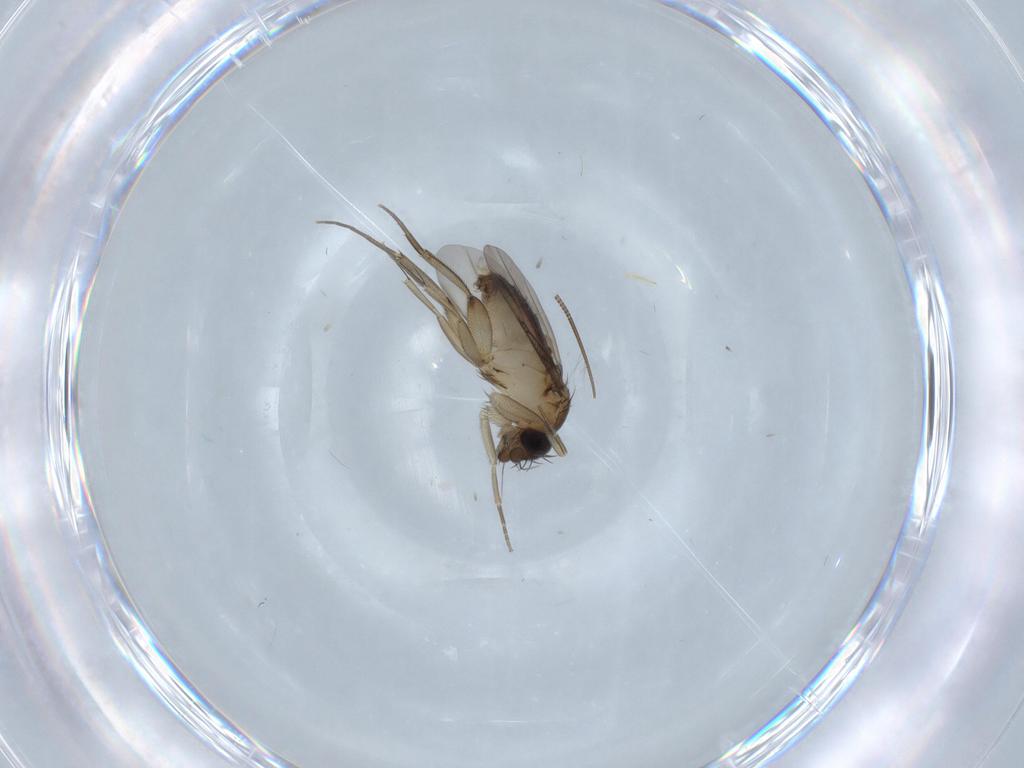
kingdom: Animalia
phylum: Arthropoda
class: Insecta
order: Diptera
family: Phoridae
